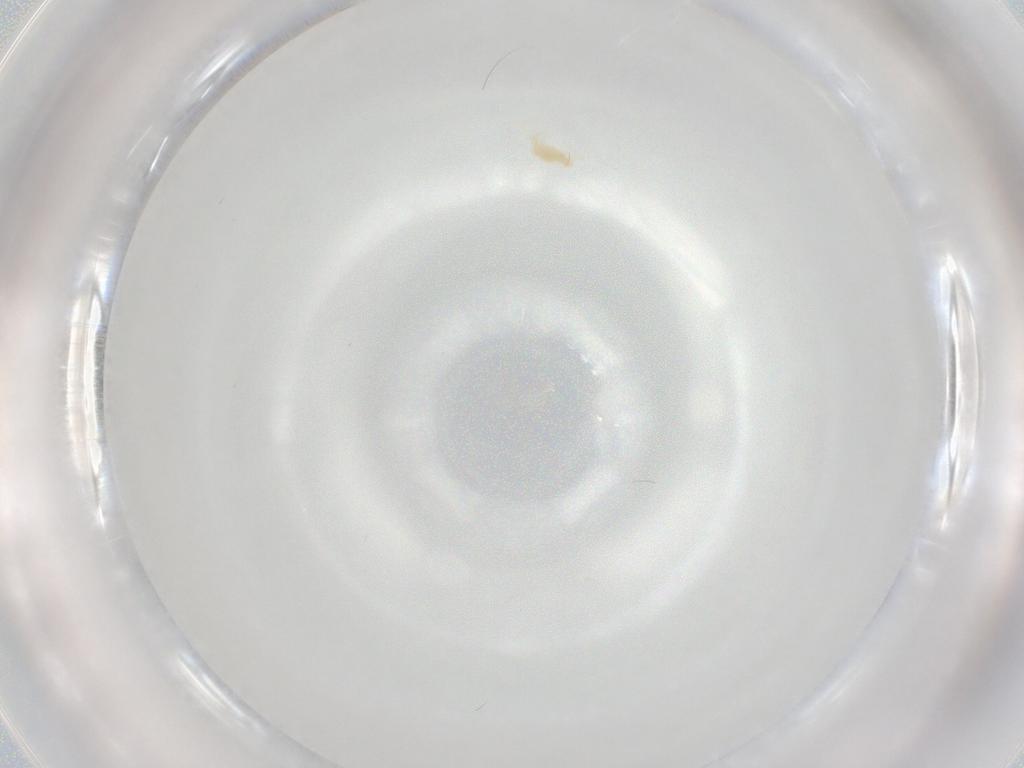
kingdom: Animalia
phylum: Arthropoda
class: Arachnida
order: Trombidiformes
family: Eupodidae
